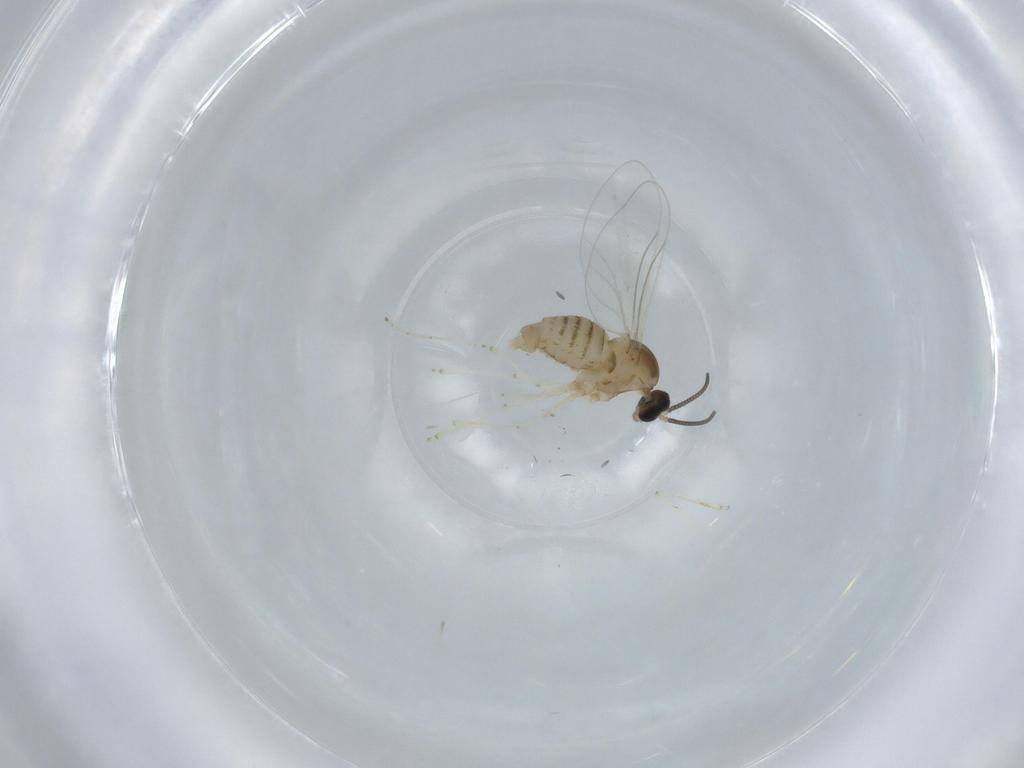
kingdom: Animalia
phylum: Arthropoda
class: Insecta
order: Diptera
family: Cecidomyiidae
